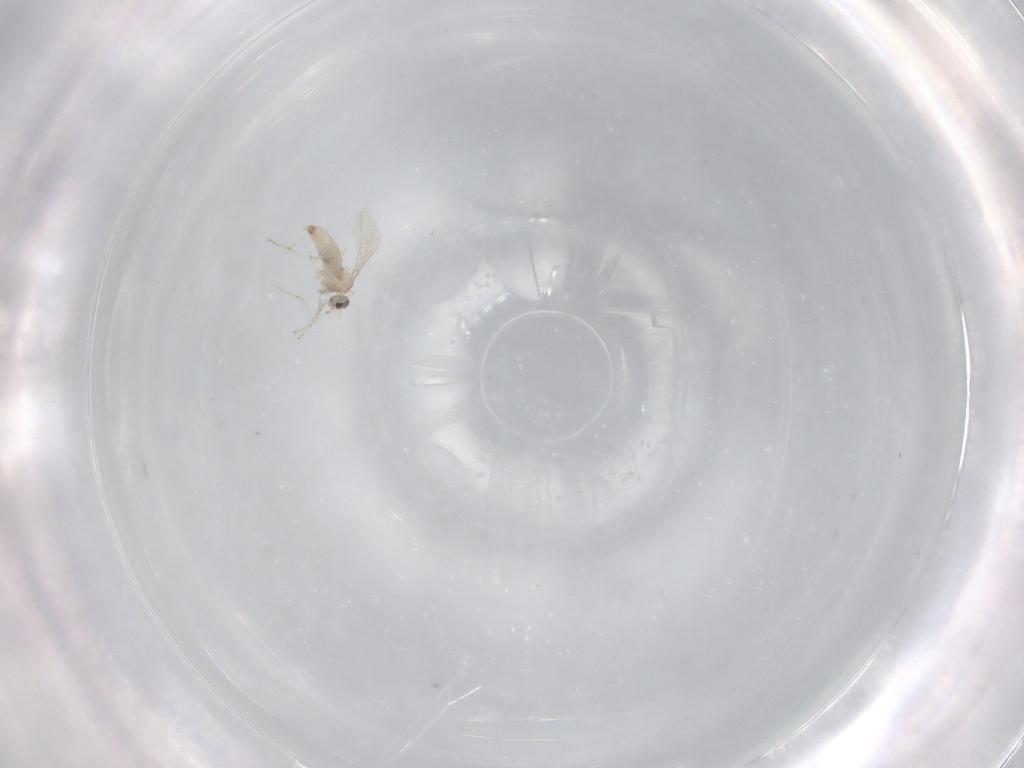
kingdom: Animalia
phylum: Arthropoda
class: Insecta
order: Diptera
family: Cecidomyiidae
